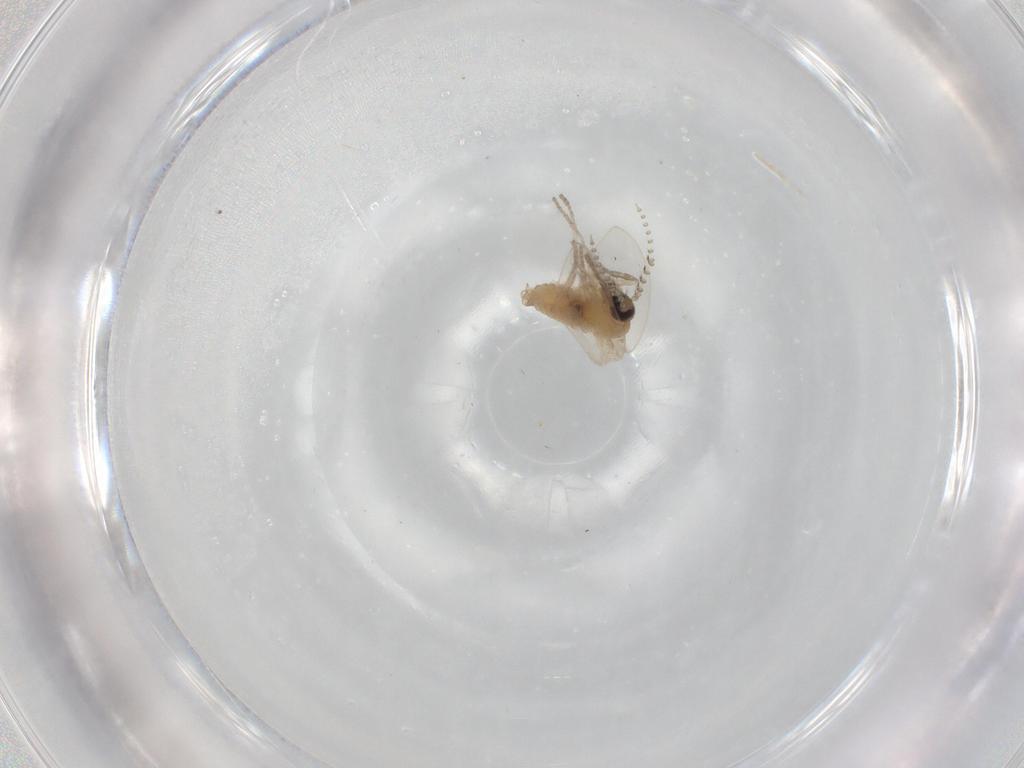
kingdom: Animalia
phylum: Arthropoda
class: Insecta
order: Diptera
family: Psychodidae
